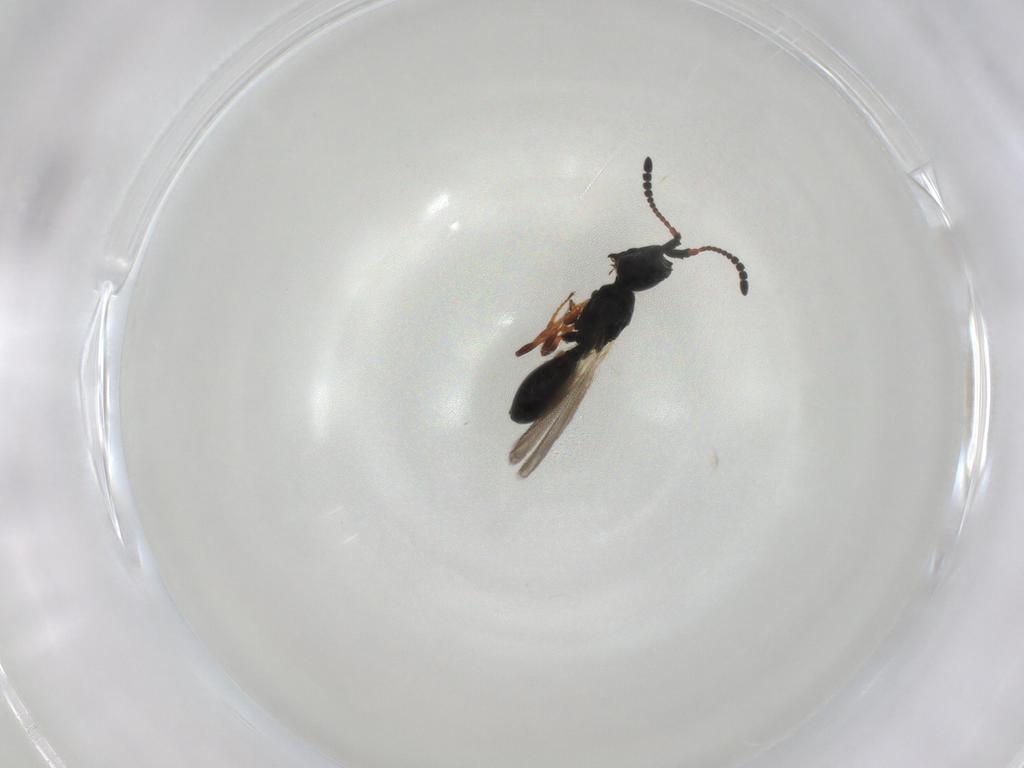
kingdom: Animalia
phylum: Arthropoda
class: Insecta
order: Hymenoptera
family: Diapriidae
